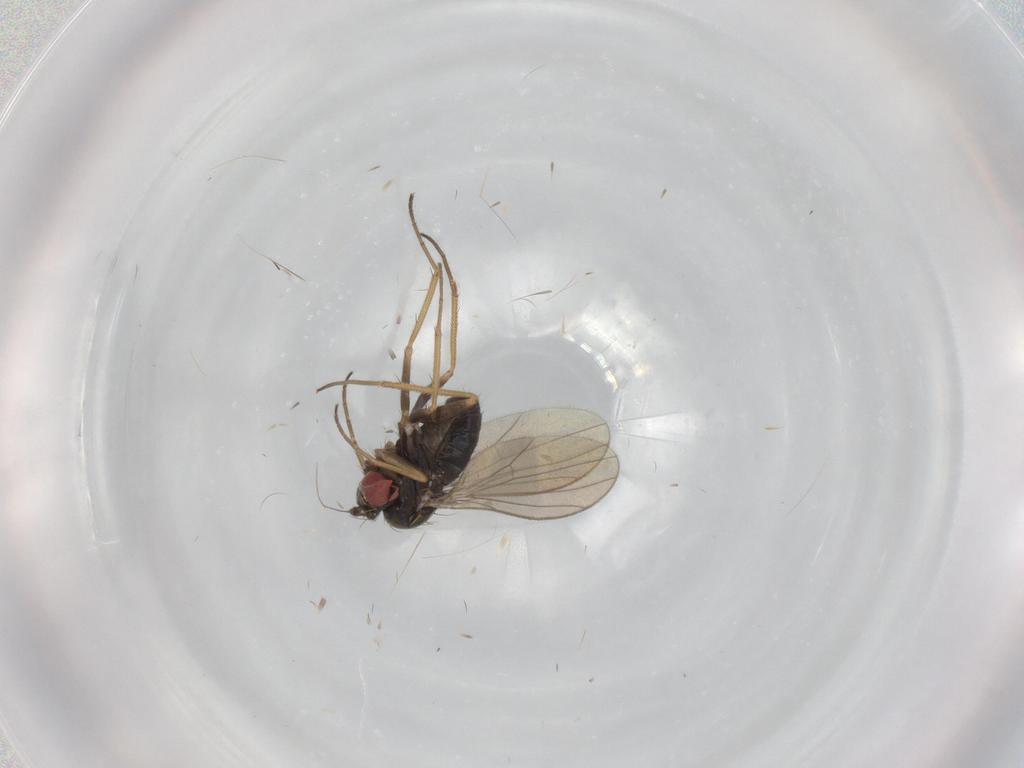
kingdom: Animalia
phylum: Arthropoda
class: Insecta
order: Diptera
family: Dolichopodidae
